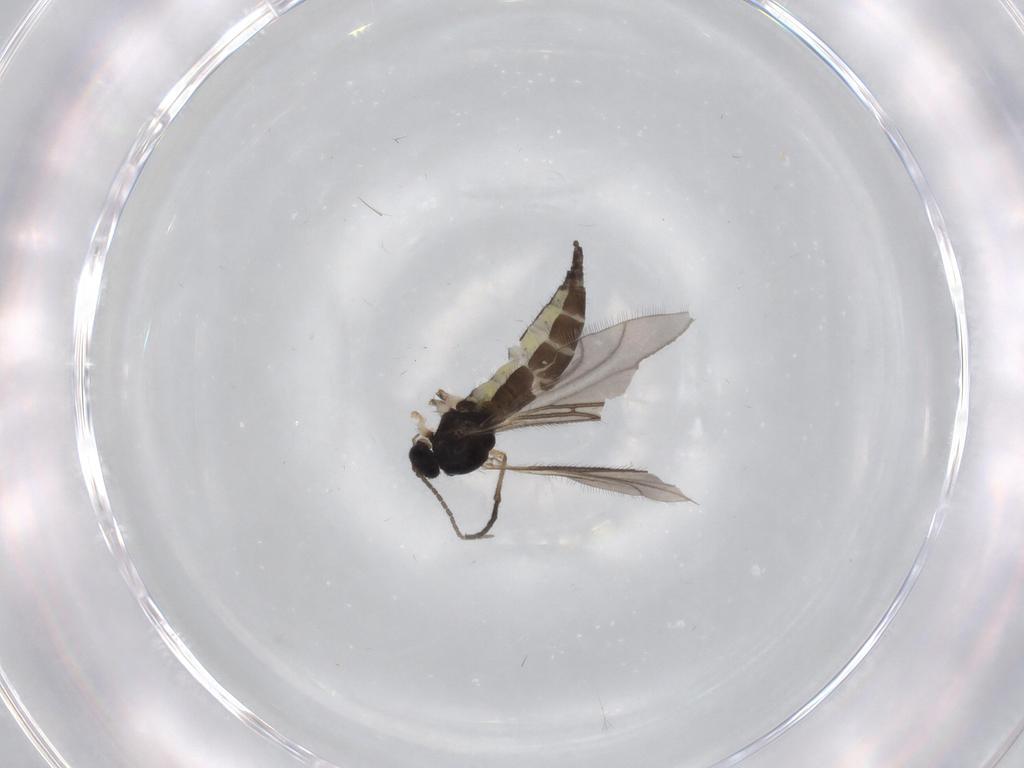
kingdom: Animalia
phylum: Arthropoda
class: Insecta
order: Diptera
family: Sciaridae
